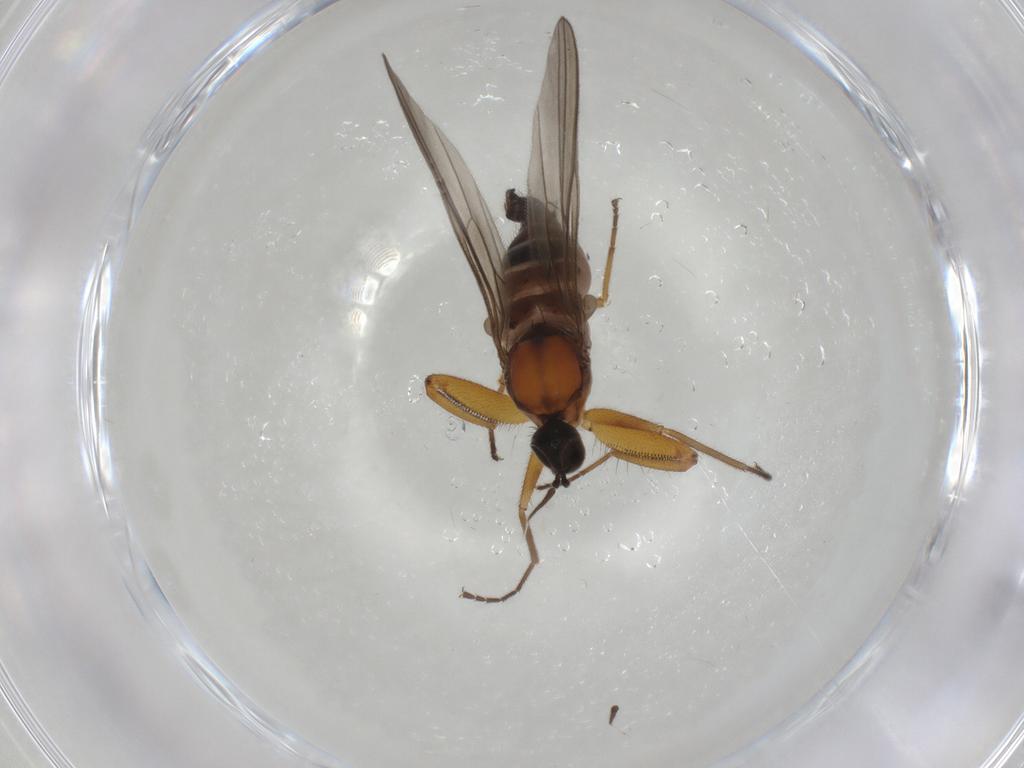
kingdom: Animalia
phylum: Arthropoda
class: Insecta
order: Diptera
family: Hybotidae
